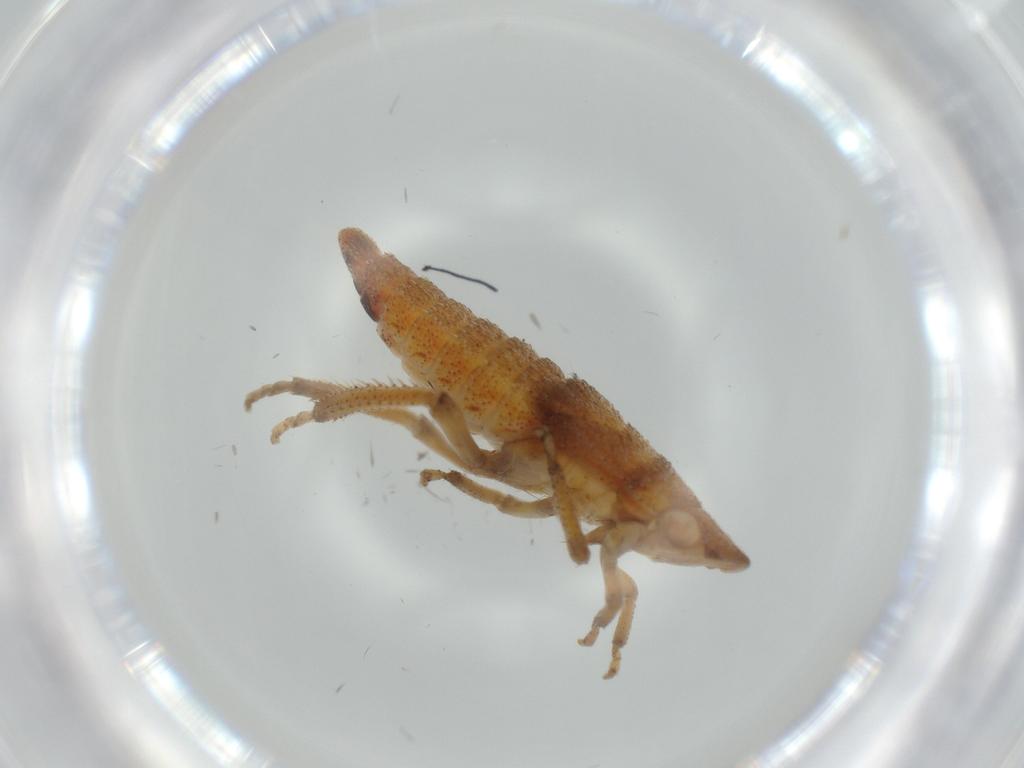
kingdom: Animalia
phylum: Arthropoda
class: Insecta
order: Hemiptera
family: Cicadellidae
